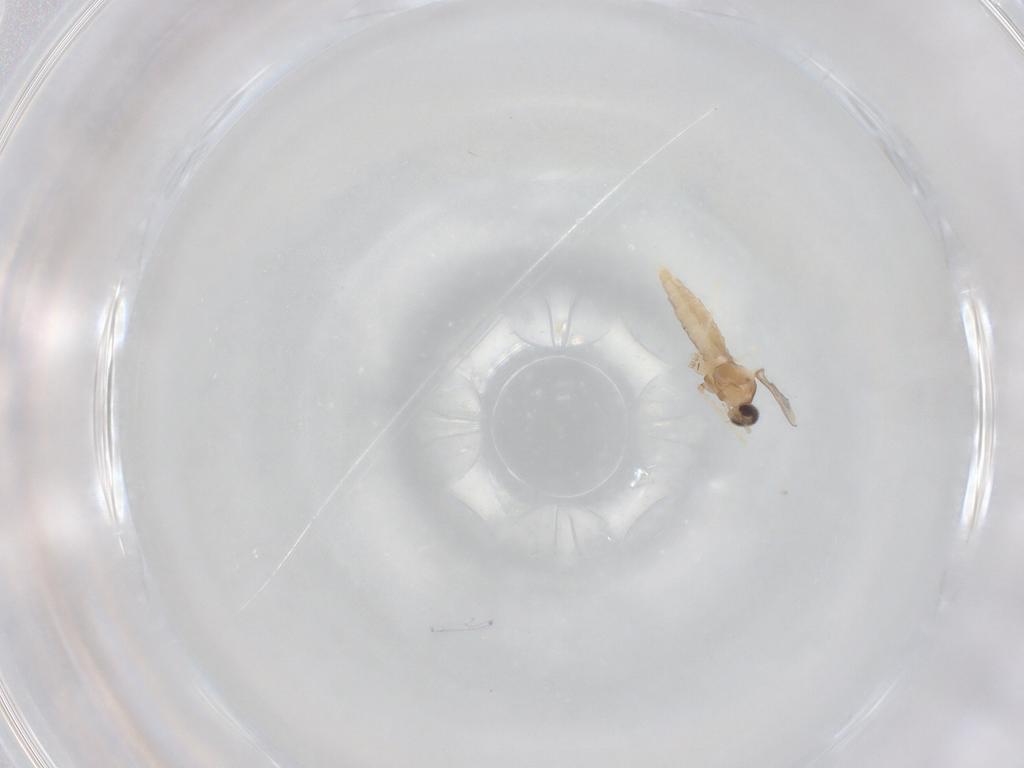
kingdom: Animalia
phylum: Arthropoda
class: Insecta
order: Diptera
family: Cecidomyiidae
